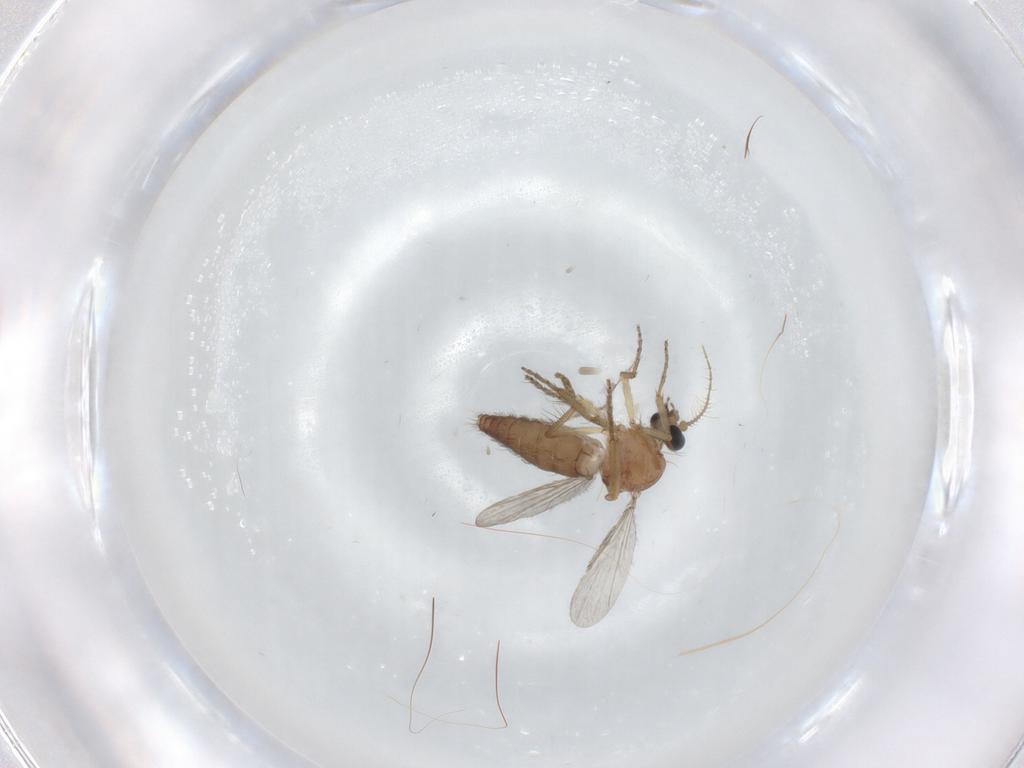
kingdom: Animalia
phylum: Arthropoda
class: Insecta
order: Diptera
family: Ceratopogonidae
